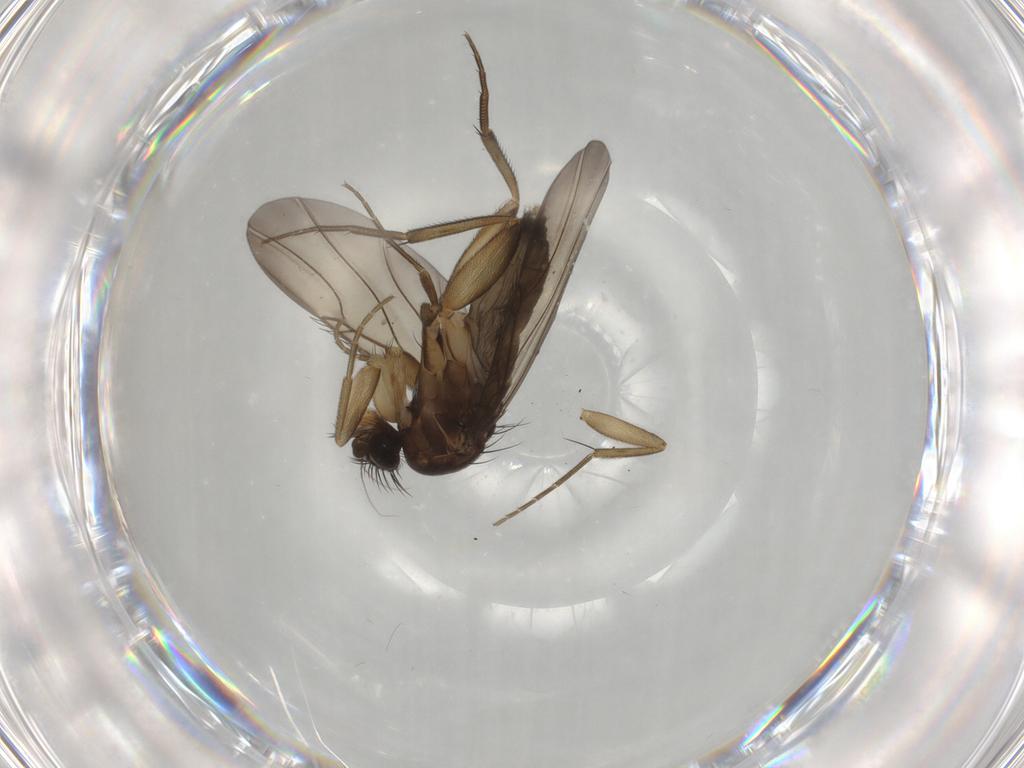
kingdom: Animalia
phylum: Arthropoda
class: Insecta
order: Diptera
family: Phoridae
